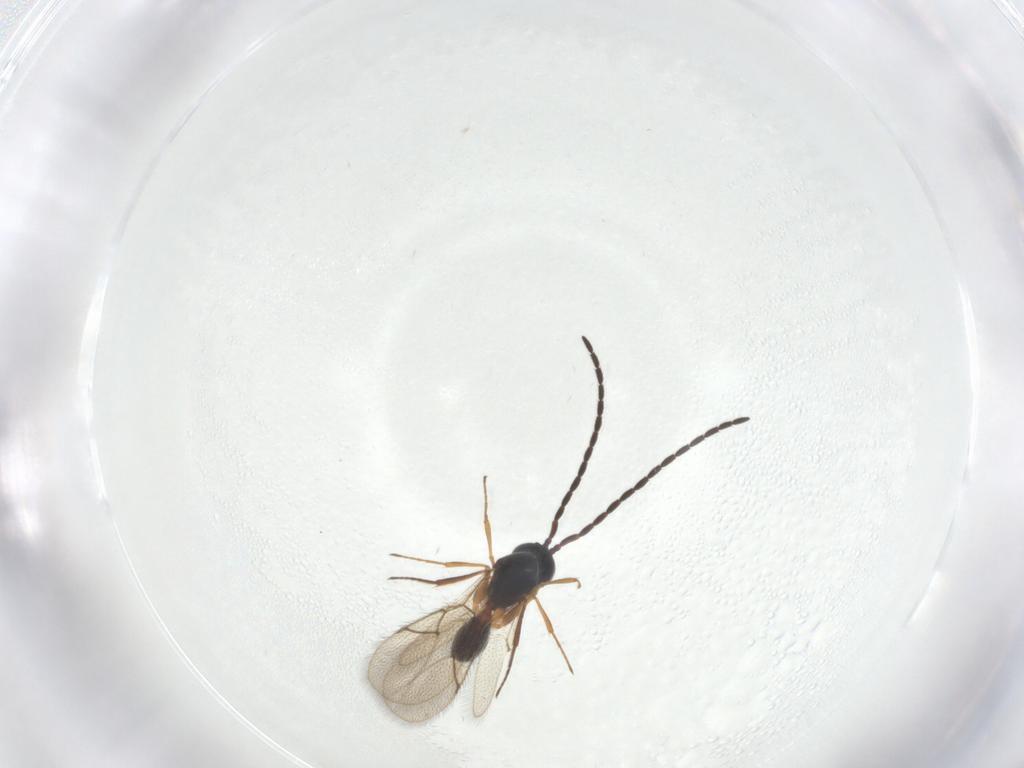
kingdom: Animalia
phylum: Arthropoda
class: Insecta
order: Hymenoptera
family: Figitidae
